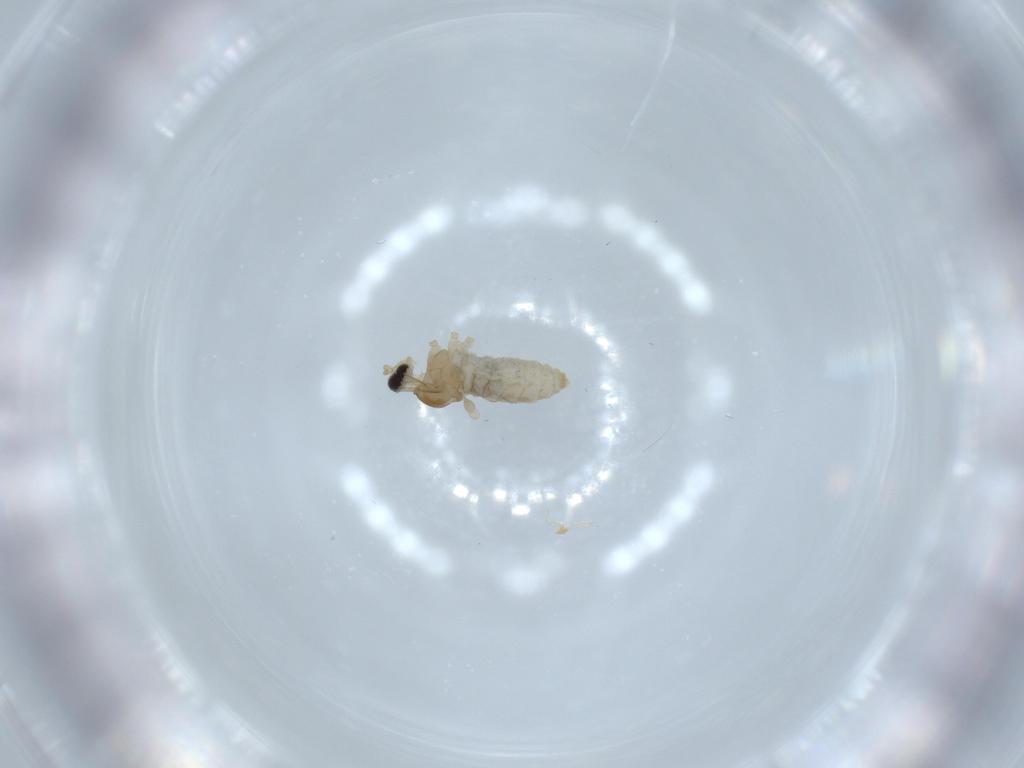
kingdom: Animalia
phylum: Arthropoda
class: Insecta
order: Diptera
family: Cecidomyiidae
